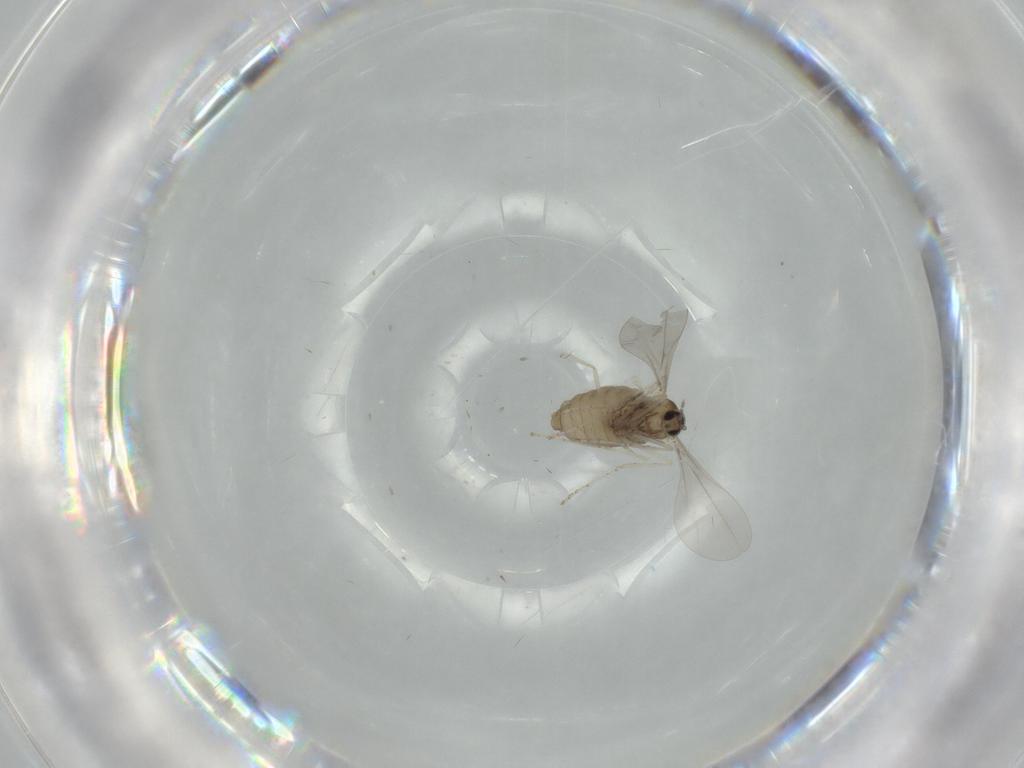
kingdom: Animalia
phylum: Arthropoda
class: Insecta
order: Diptera
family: Cecidomyiidae
